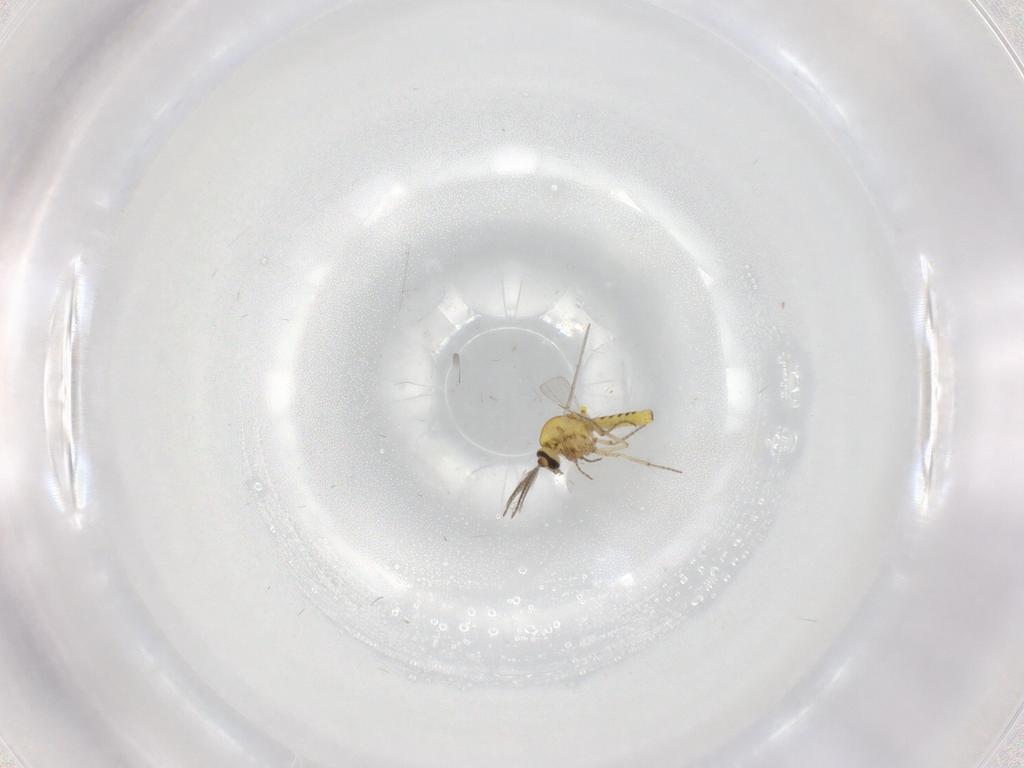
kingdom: Animalia
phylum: Arthropoda
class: Insecta
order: Diptera
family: Ceratopogonidae
